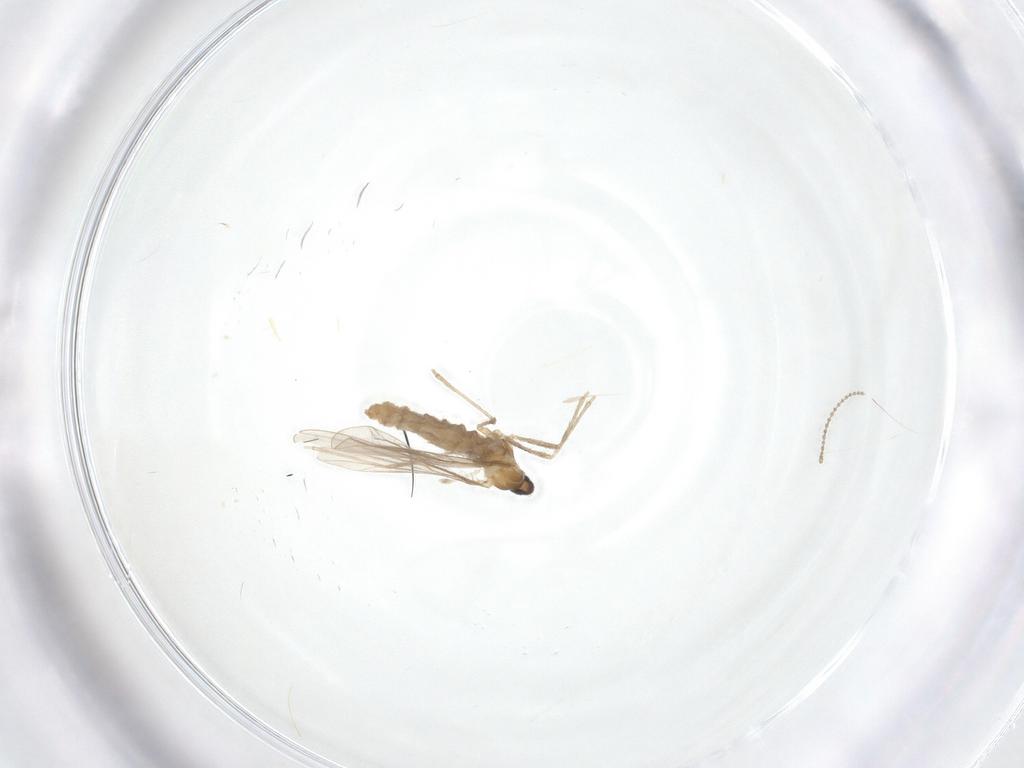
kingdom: Animalia
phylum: Arthropoda
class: Insecta
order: Diptera
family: Cecidomyiidae
